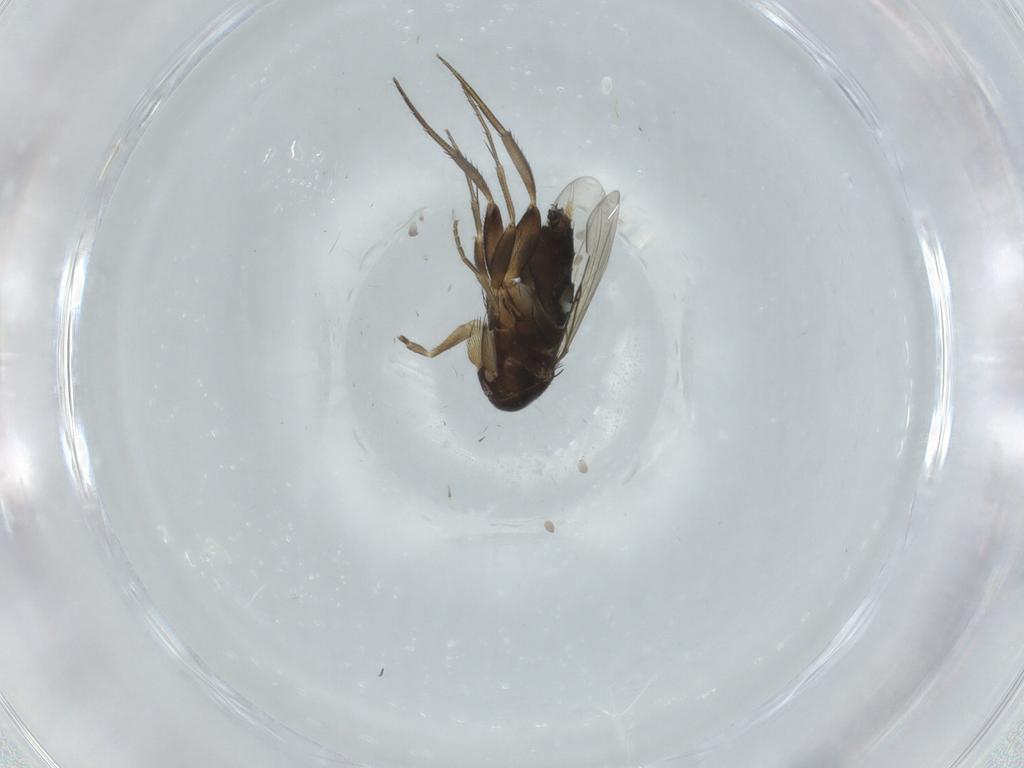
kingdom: Animalia
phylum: Arthropoda
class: Insecta
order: Diptera
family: Phoridae
